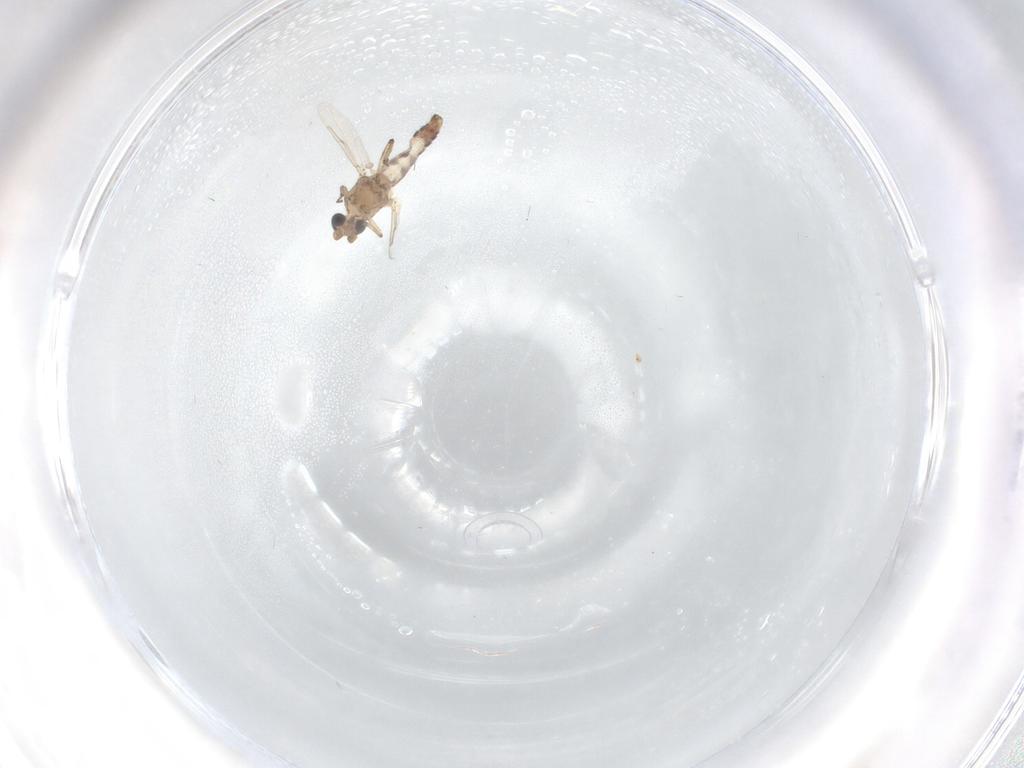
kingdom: Animalia
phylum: Arthropoda
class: Insecta
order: Diptera
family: Ceratopogonidae
